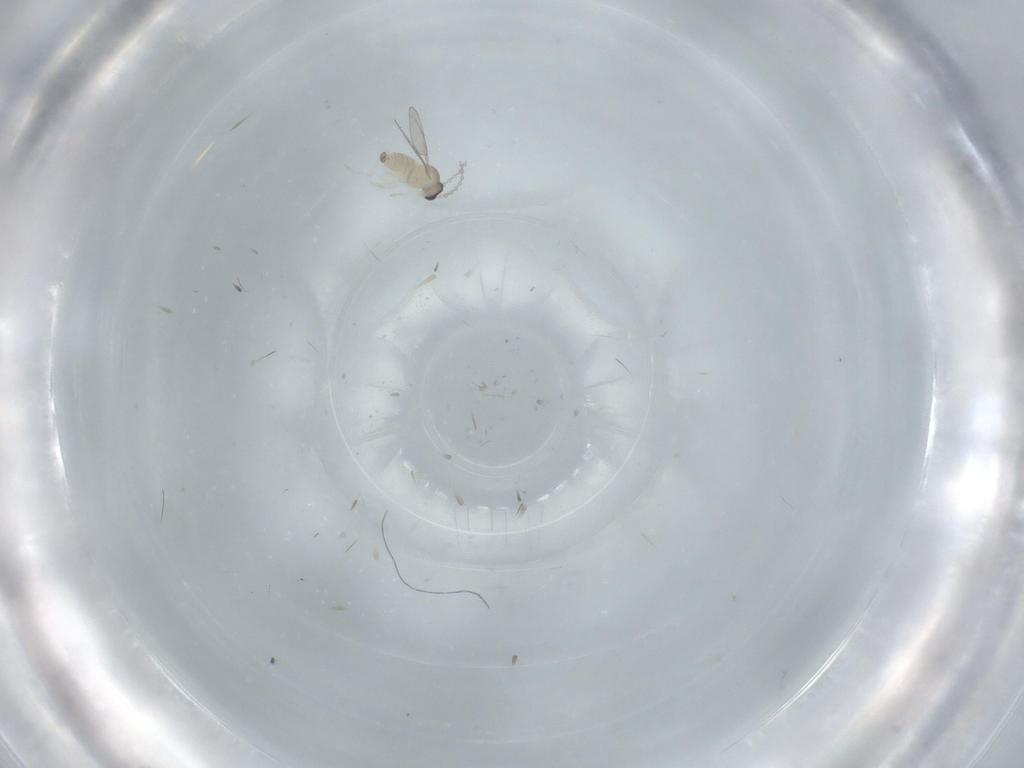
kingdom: Animalia
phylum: Arthropoda
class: Insecta
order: Diptera
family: Cecidomyiidae
